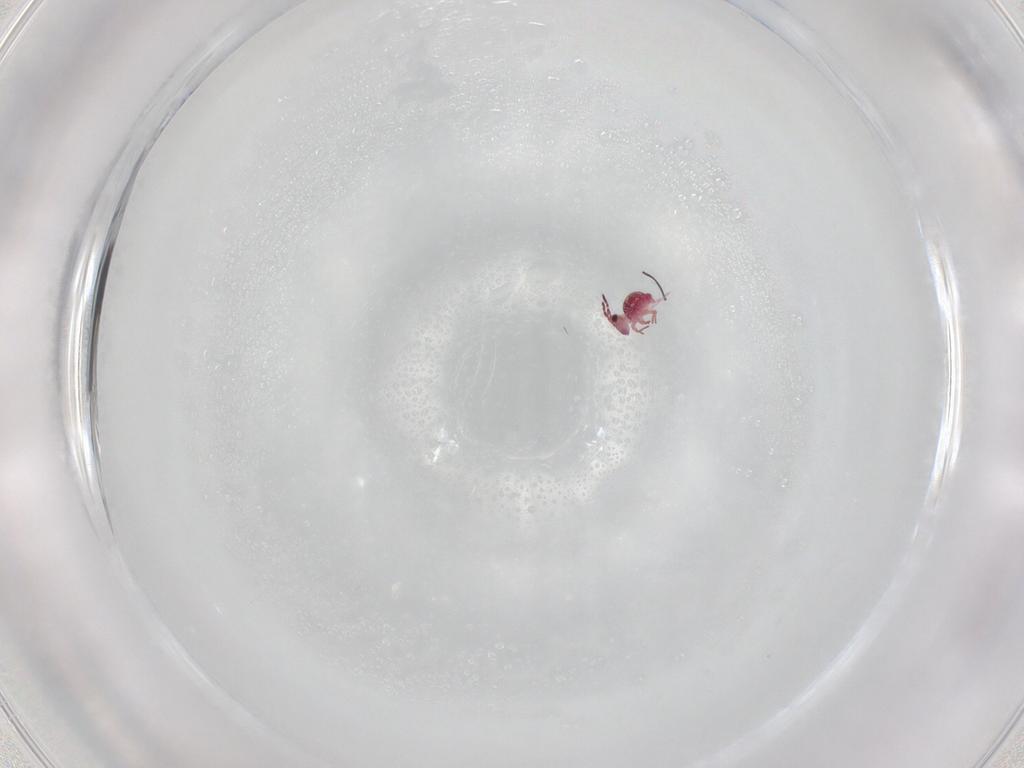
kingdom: Animalia
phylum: Arthropoda
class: Collembola
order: Symphypleona
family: Sminthurididae
